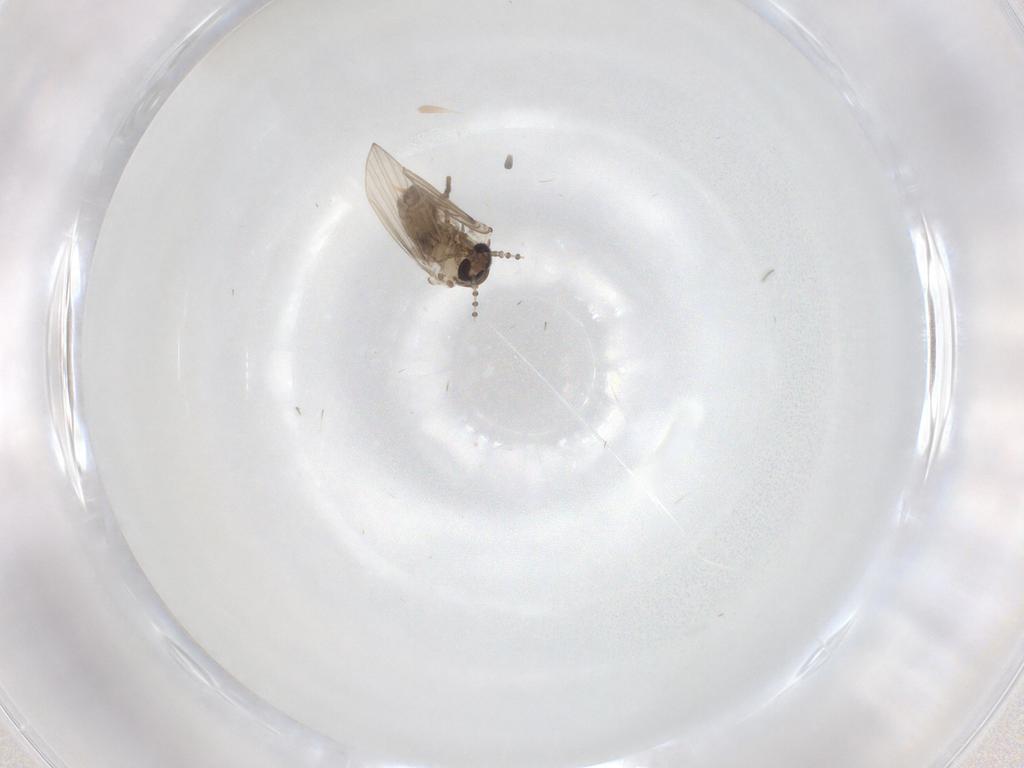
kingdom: Animalia
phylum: Arthropoda
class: Insecta
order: Diptera
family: Psychodidae
